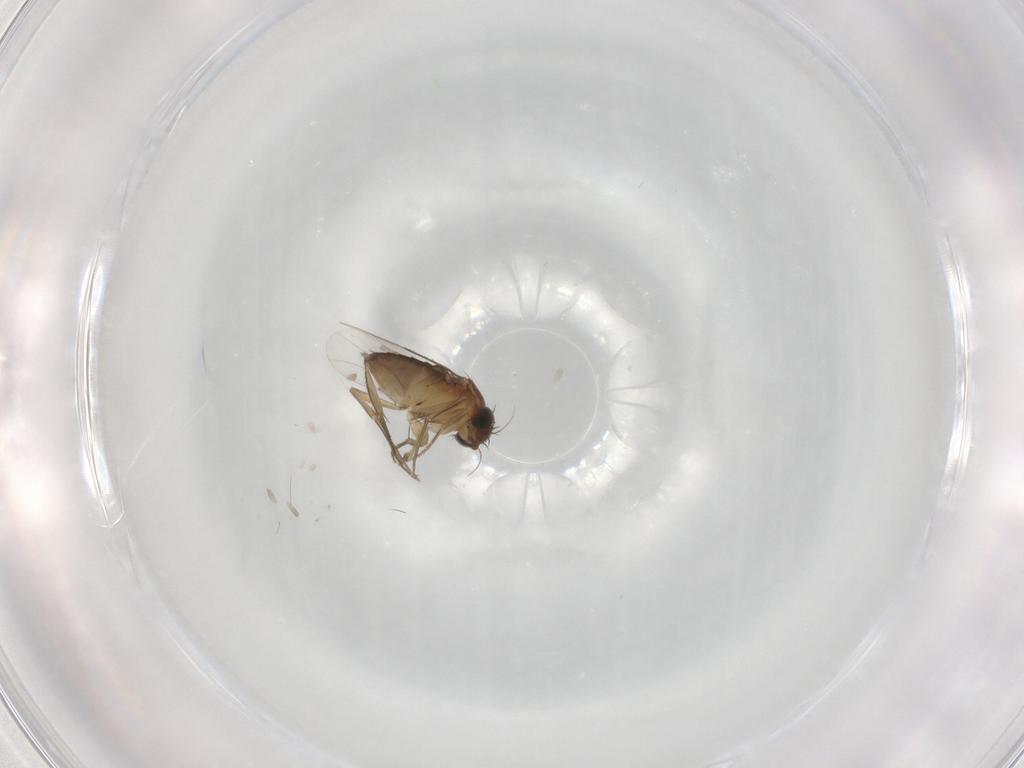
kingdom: Animalia
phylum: Arthropoda
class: Insecta
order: Diptera
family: Phoridae
